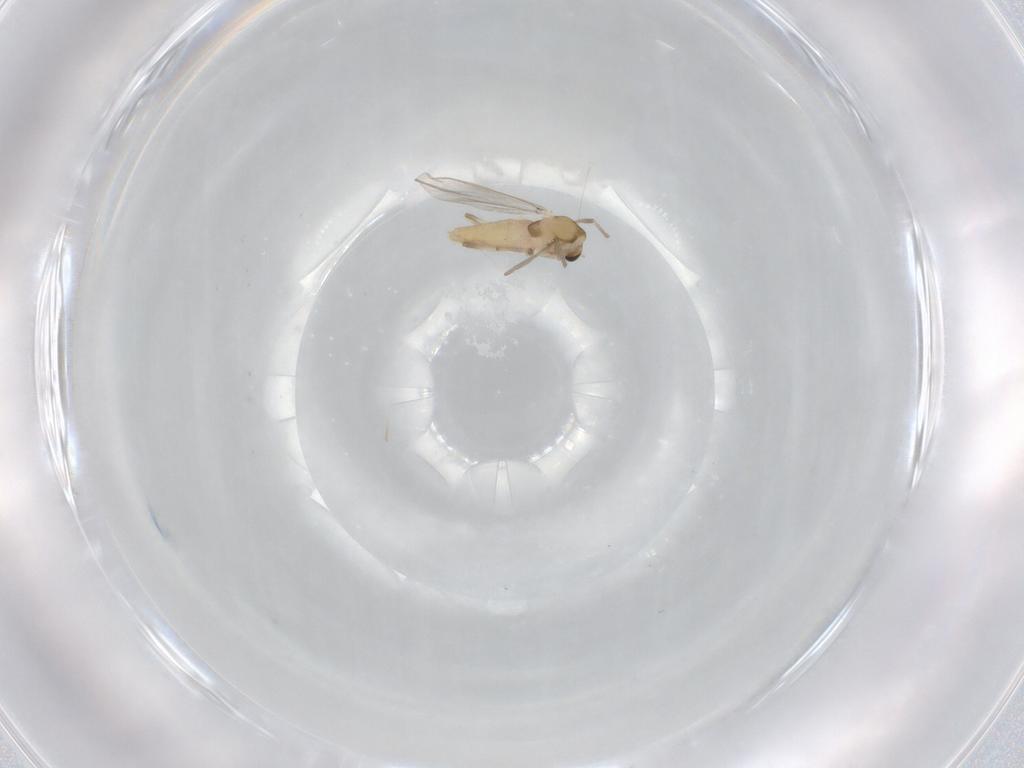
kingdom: Animalia
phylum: Arthropoda
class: Insecta
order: Diptera
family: Chironomidae
